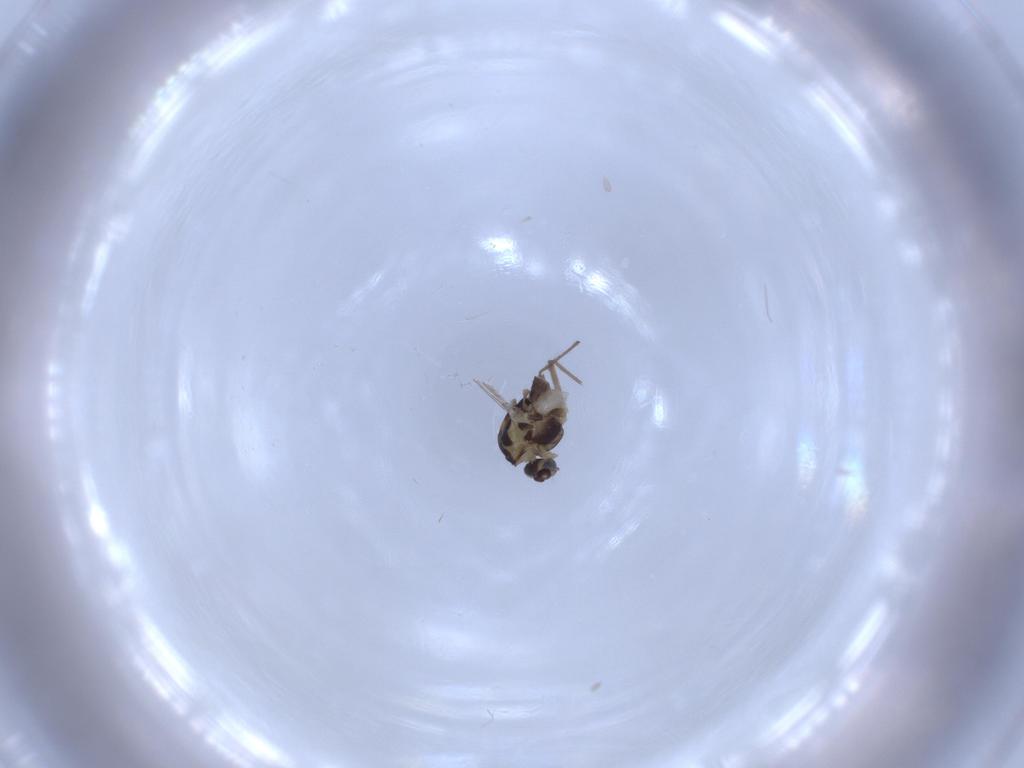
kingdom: Animalia
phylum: Arthropoda
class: Insecta
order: Diptera
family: Chironomidae
